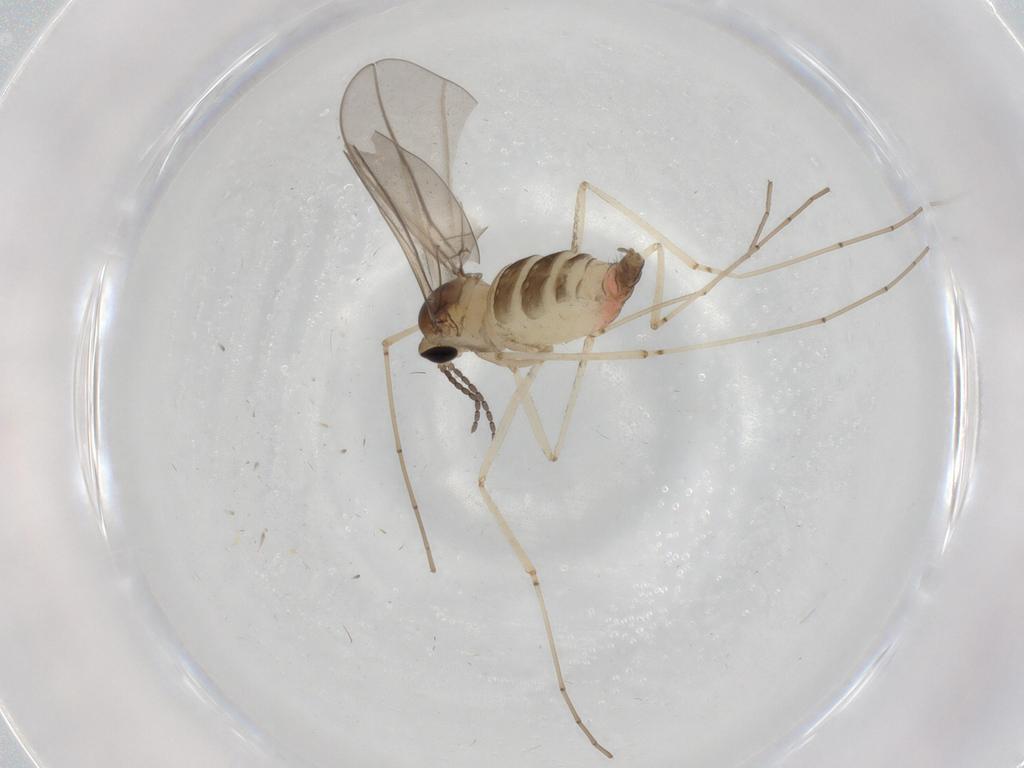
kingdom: Animalia
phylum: Arthropoda
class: Insecta
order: Diptera
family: Cecidomyiidae
